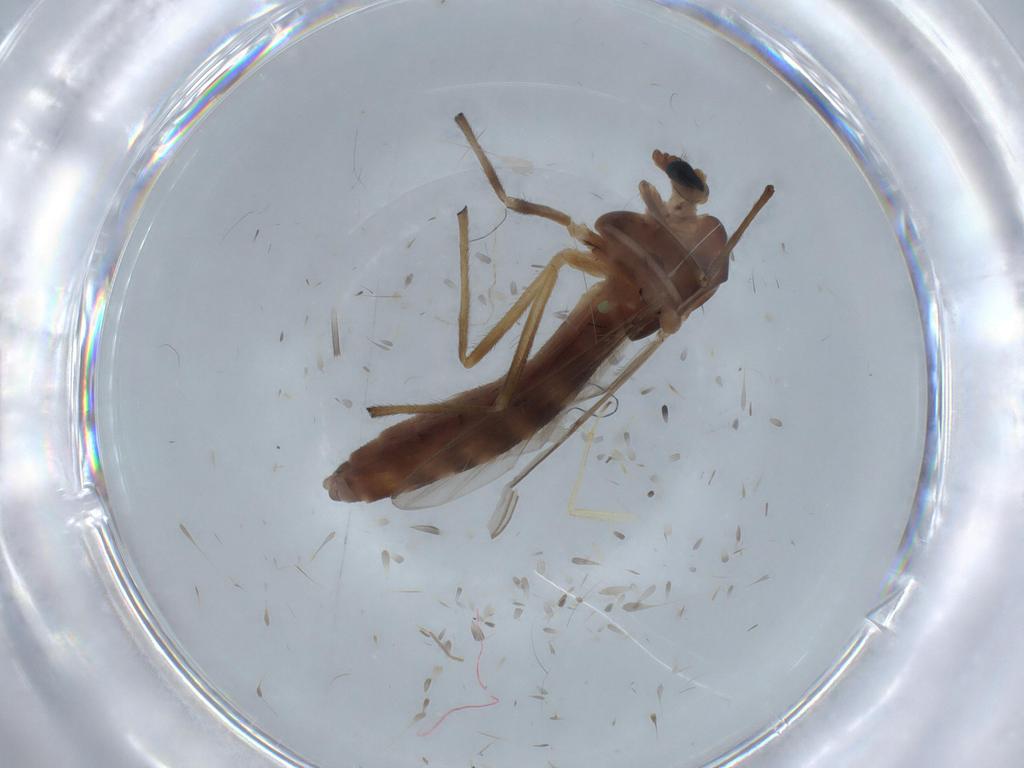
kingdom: Animalia
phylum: Arthropoda
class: Insecta
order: Diptera
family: Chironomidae
